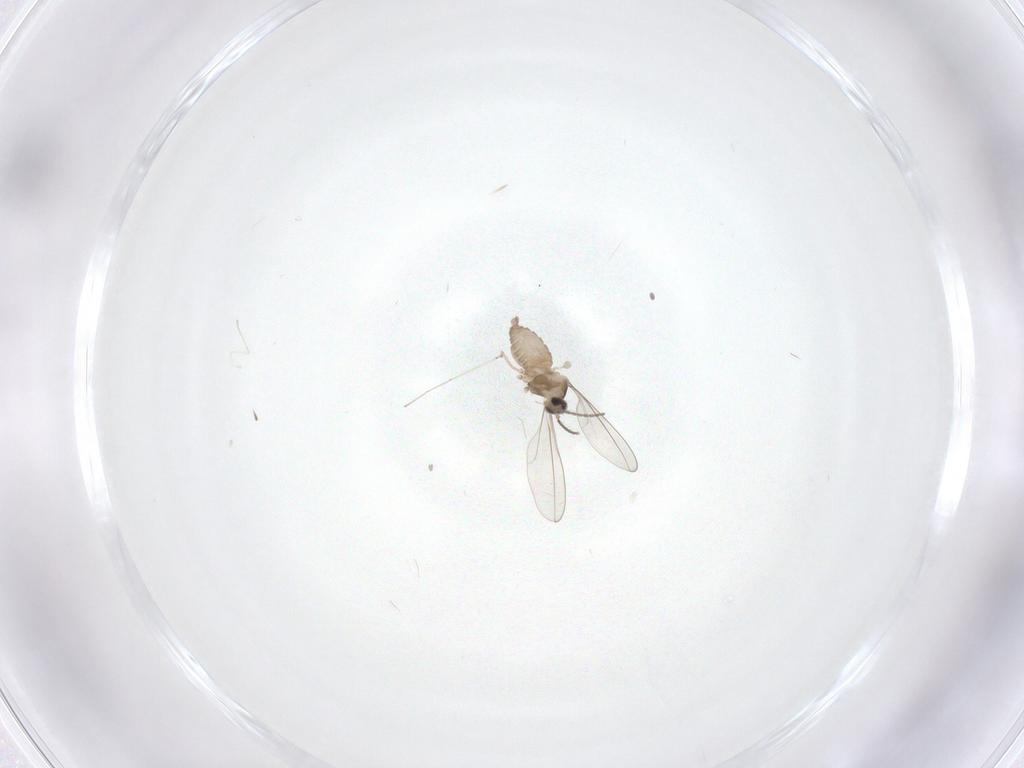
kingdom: Animalia
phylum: Arthropoda
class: Insecta
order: Diptera
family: Cecidomyiidae
